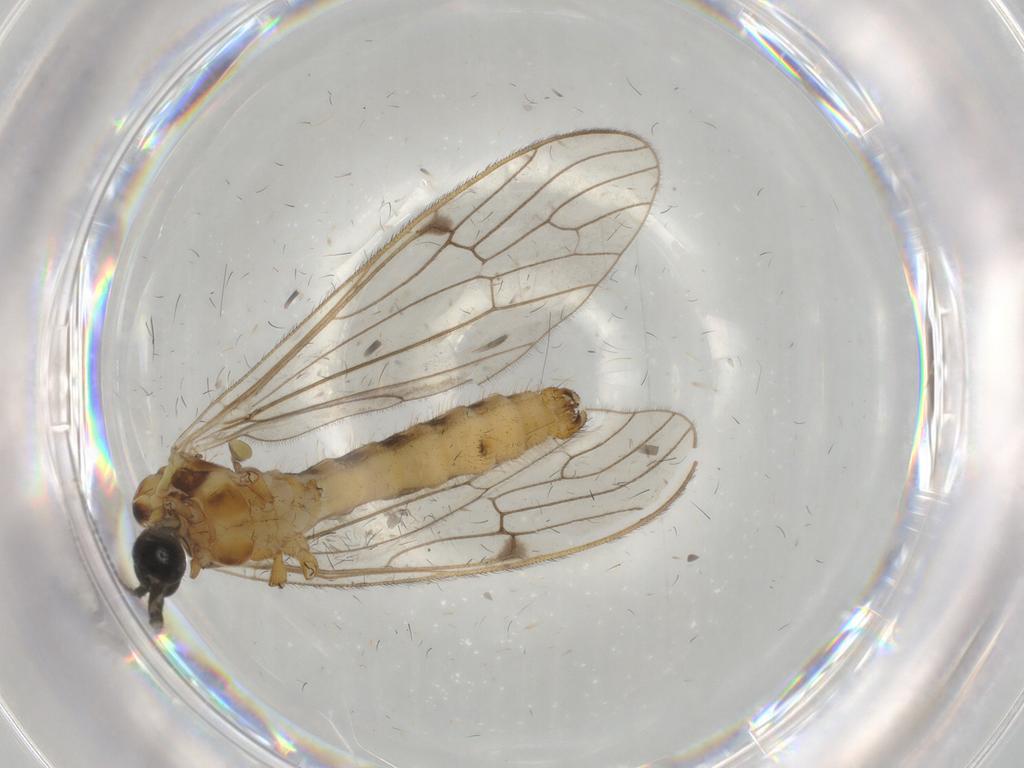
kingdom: Animalia
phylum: Arthropoda
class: Insecta
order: Diptera
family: Chironomidae
